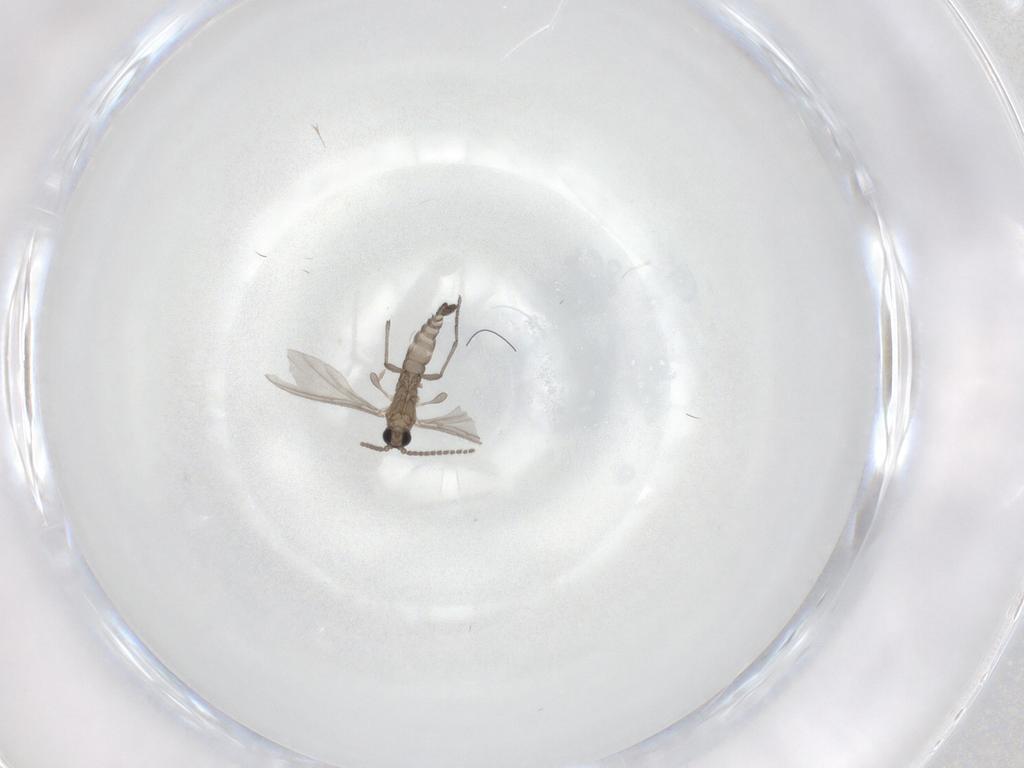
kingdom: Animalia
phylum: Arthropoda
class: Insecta
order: Diptera
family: Sciaridae
